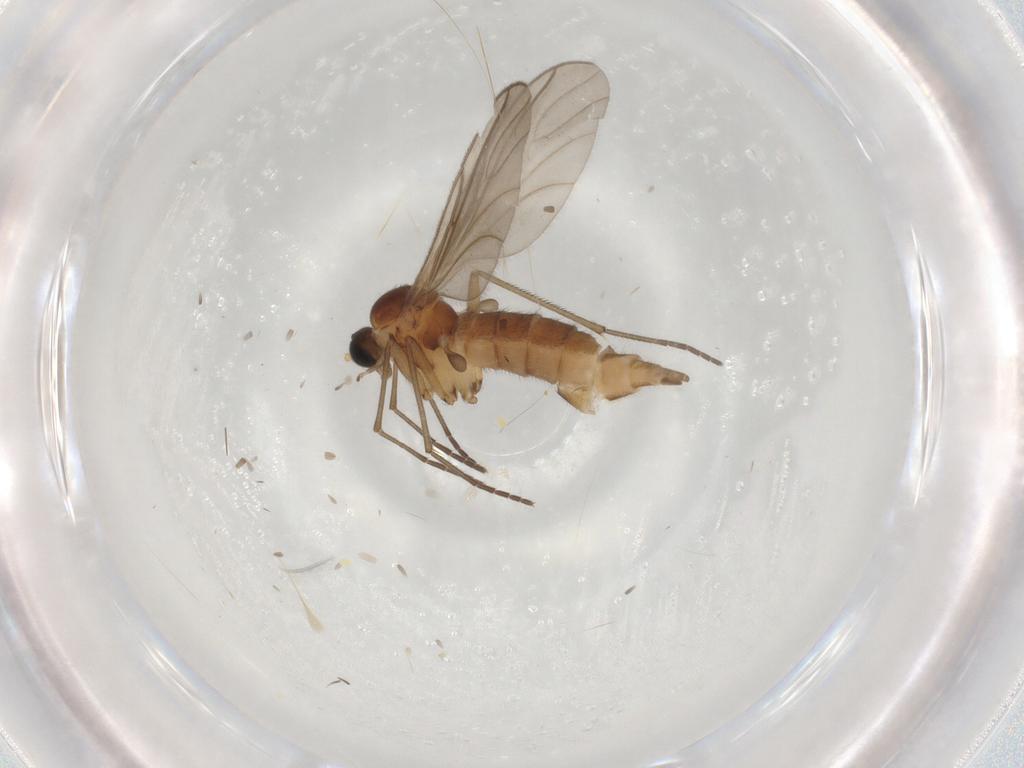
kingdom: Animalia
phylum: Arthropoda
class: Insecta
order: Diptera
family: Sciaridae
